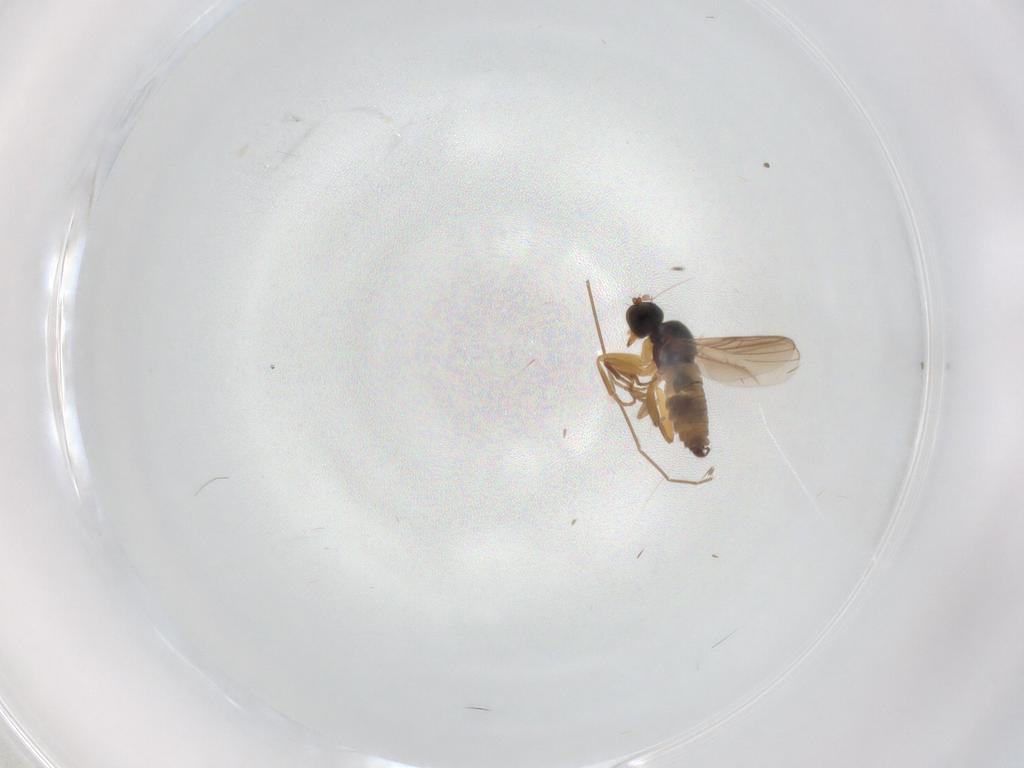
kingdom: Animalia
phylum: Arthropoda
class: Insecta
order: Diptera
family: Hybotidae
